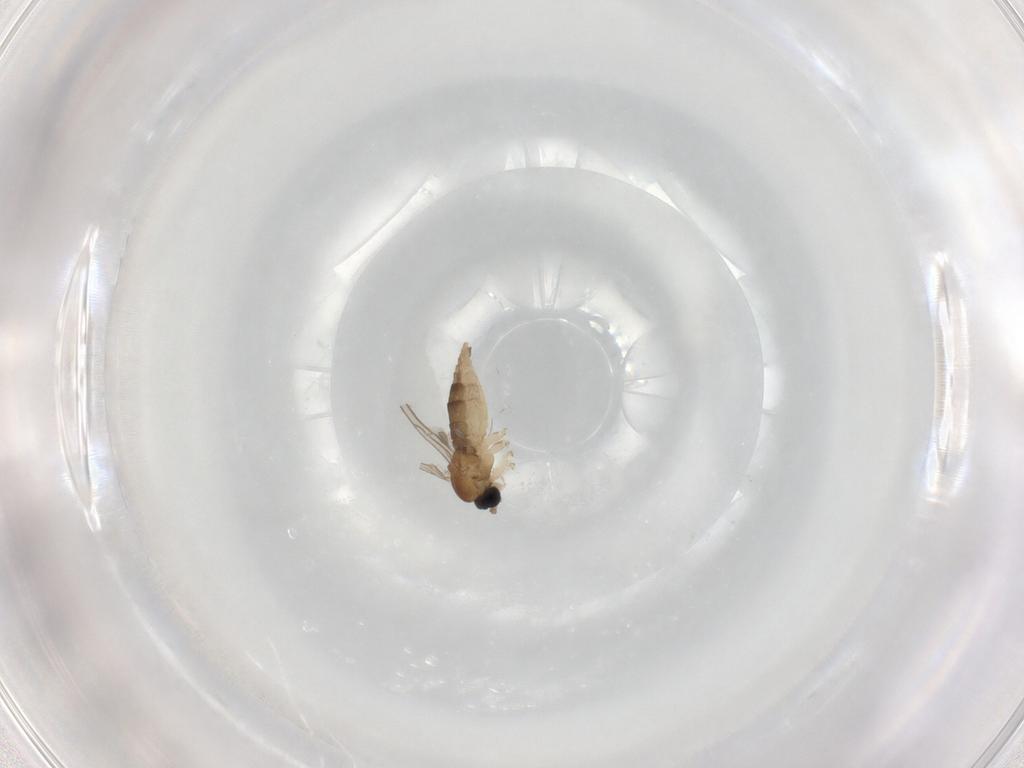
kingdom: Animalia
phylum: Arthropoda
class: Insecta
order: Diptera
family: Sciaridae
